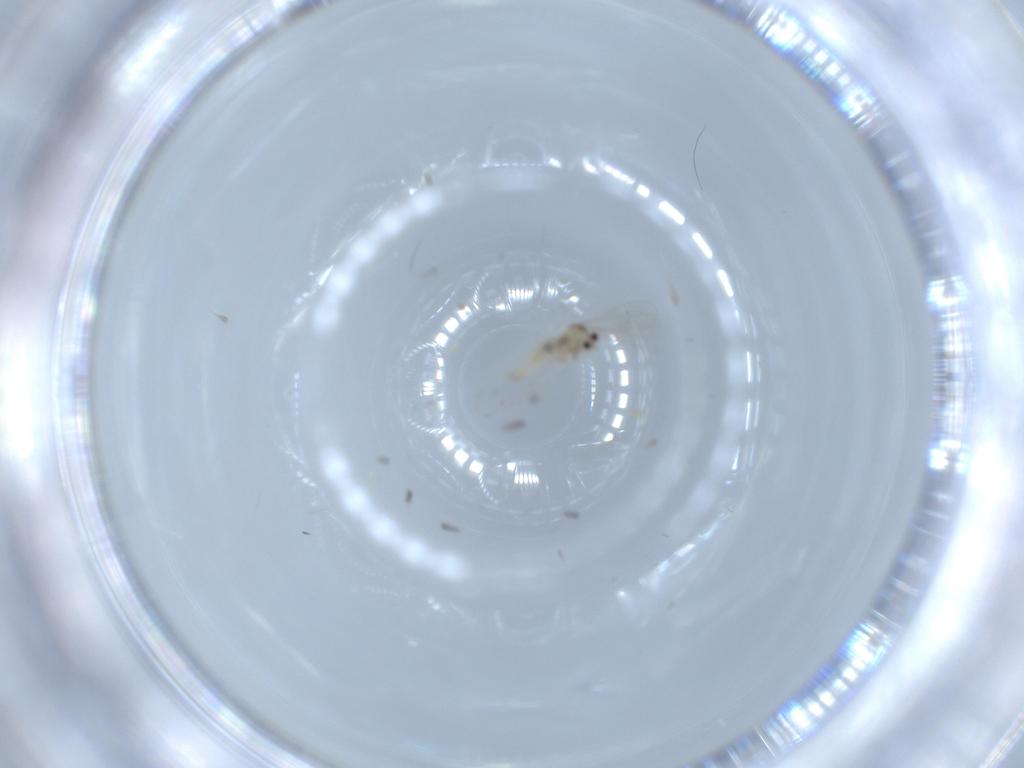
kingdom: Animalia
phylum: Arthropoda
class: Insecta
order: Diptera
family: Cecidomyiidae
